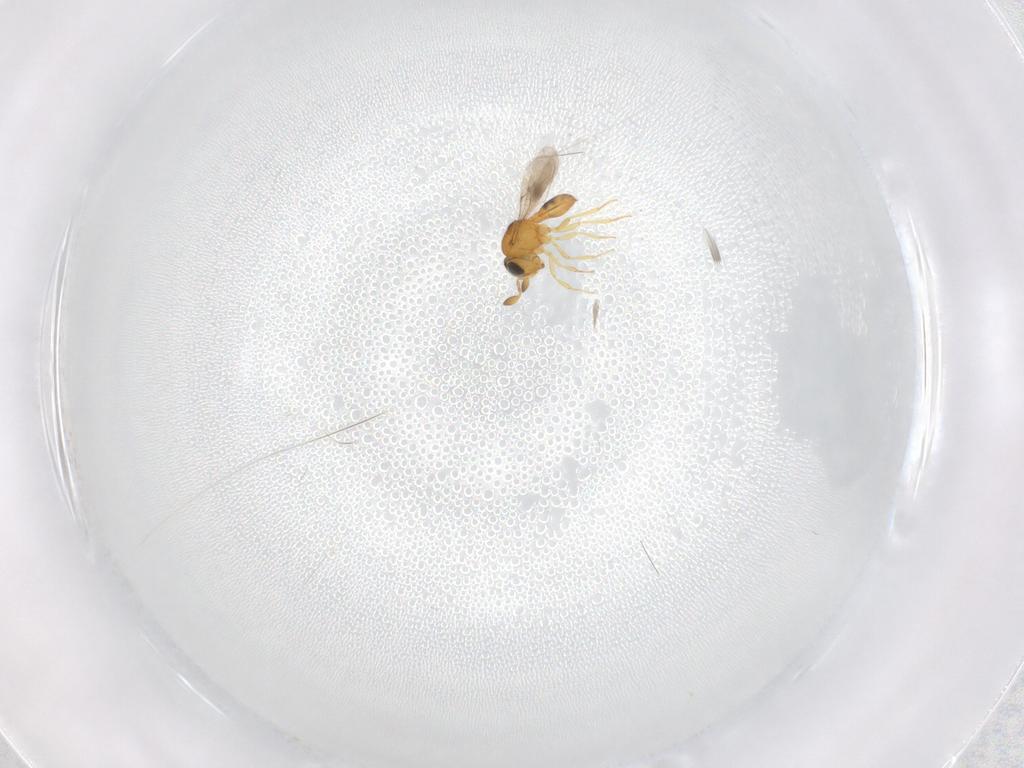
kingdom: Animalia
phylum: Arthropoda
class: Insecta
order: Hymenoptera
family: Scelionidae
